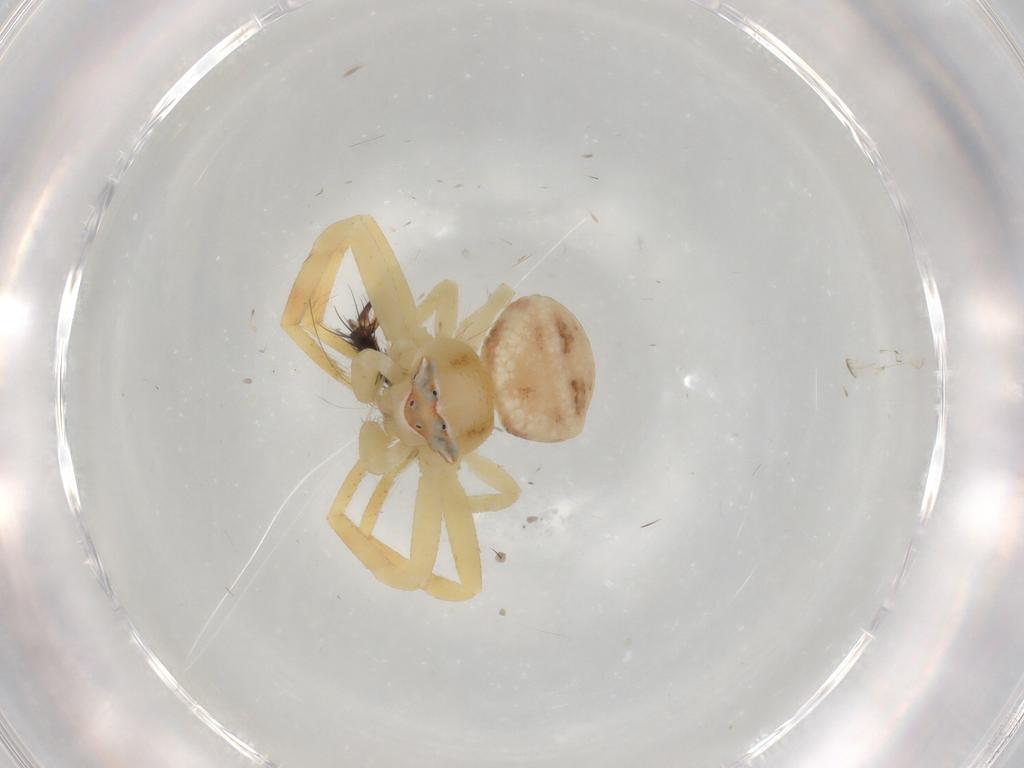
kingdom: Animalia
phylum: Arthropoda
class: Arachnida
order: Araneae
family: Thomisidae
